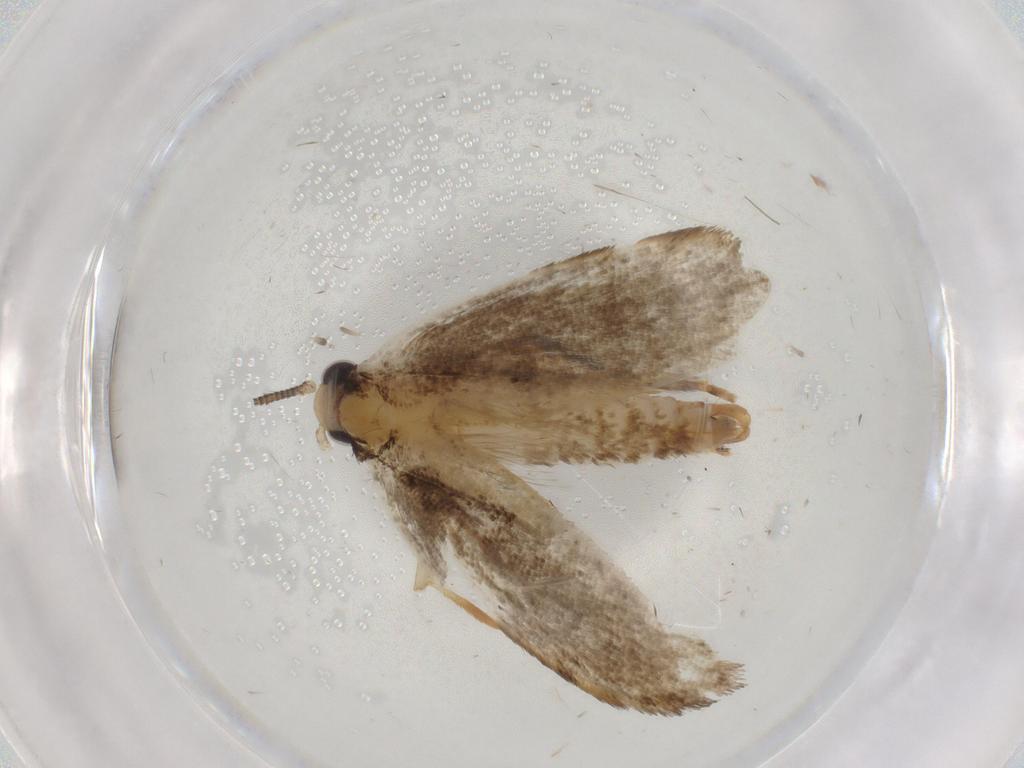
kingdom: Animalia
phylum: Arthropoda
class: Insecta
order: Lepidoptera
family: Tineidae
